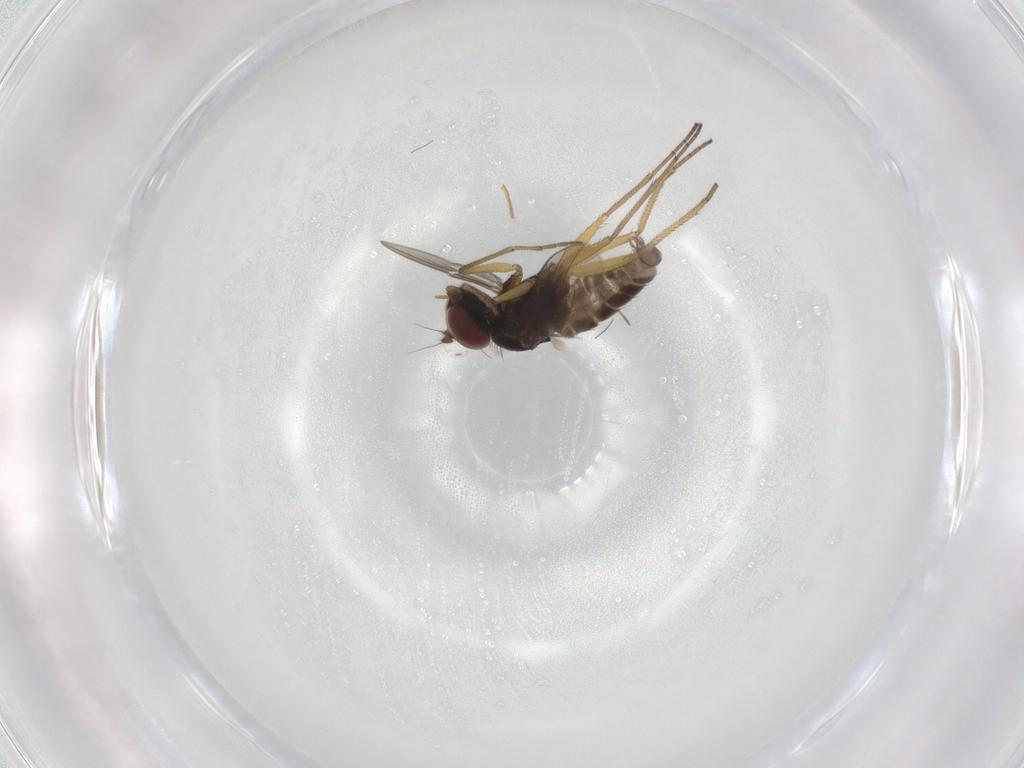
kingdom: Animalia
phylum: Arthropoda
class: Insecta
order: Diptera
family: Dolichopodidae
